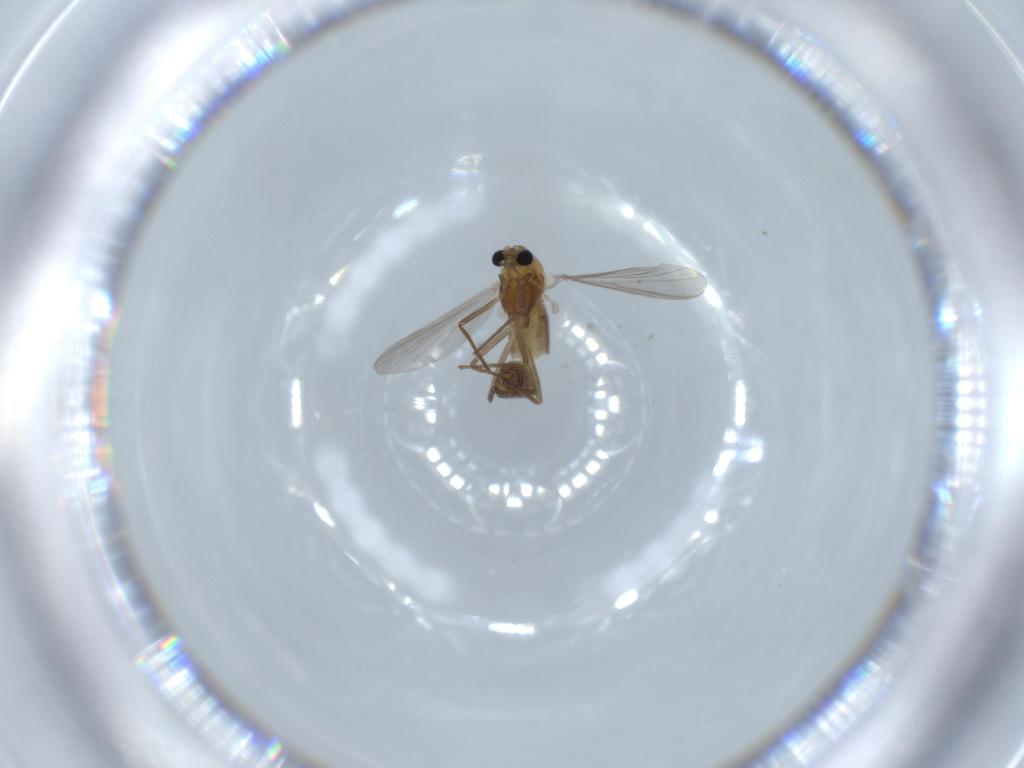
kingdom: Animalia
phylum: Arthropoda
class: Insecta
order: Diptera
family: Chironomidae
